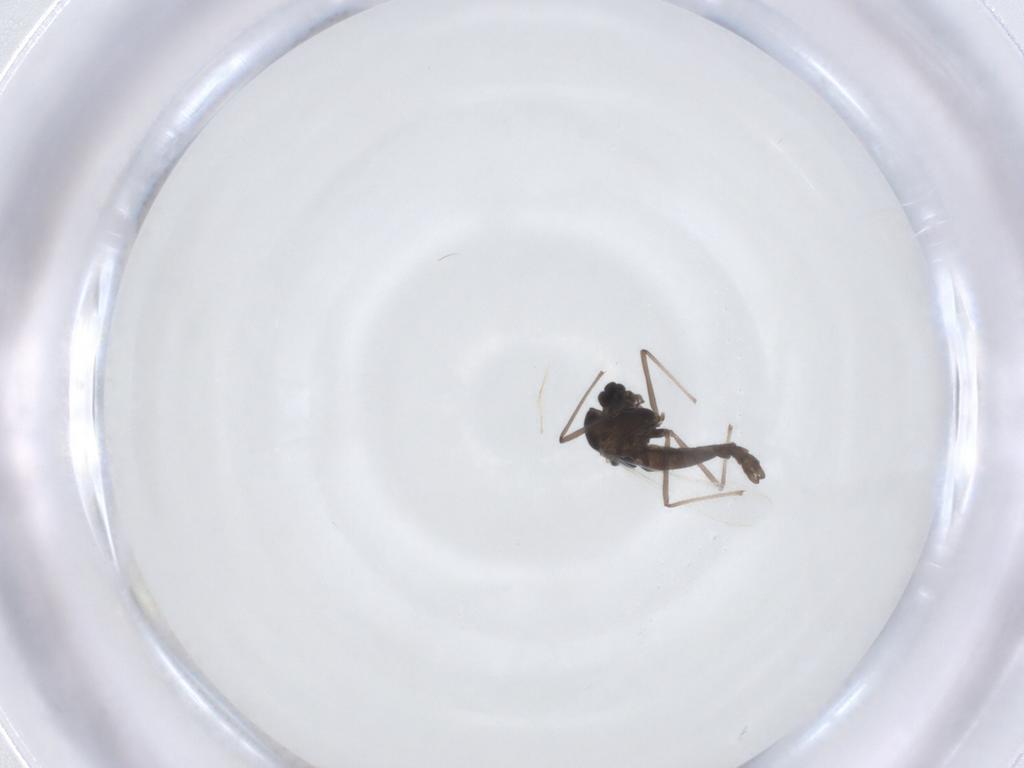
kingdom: Animalia
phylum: Arthropoda
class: Insecta
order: Diptera
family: Chironomidae
